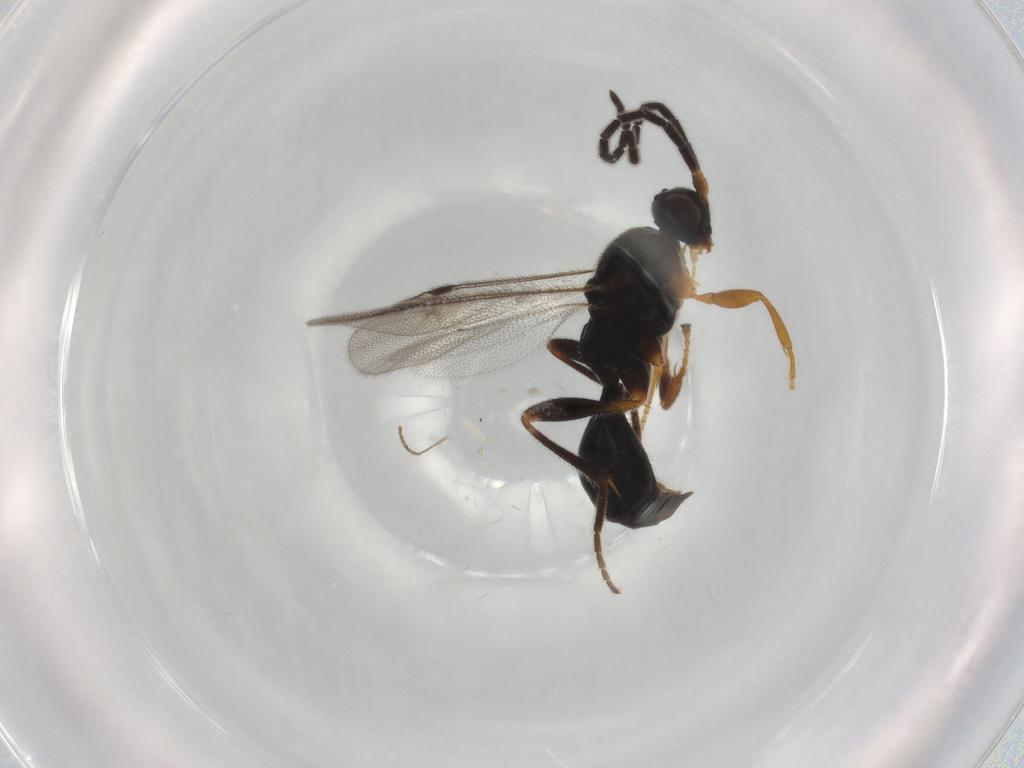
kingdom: Animalia
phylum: Arthropoda
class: Insecta
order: Hymenoptera
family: Proctotrupidae
